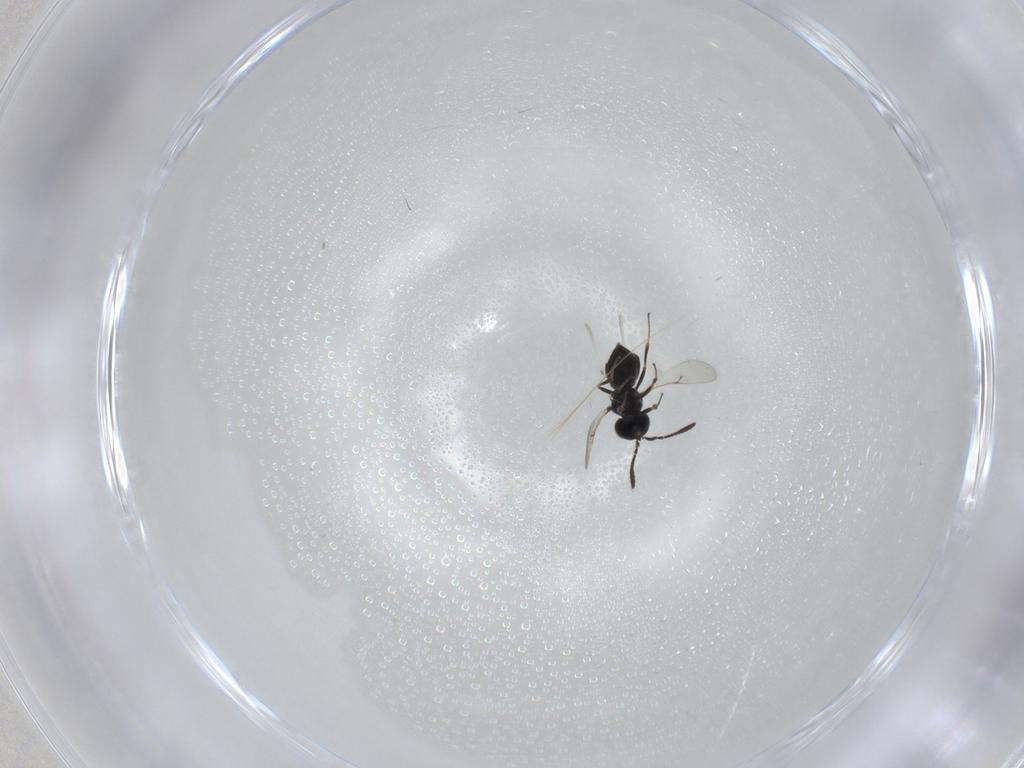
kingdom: Animalia
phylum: Arthropoda
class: Insecta
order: Hymenoptera
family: Scelionidae
